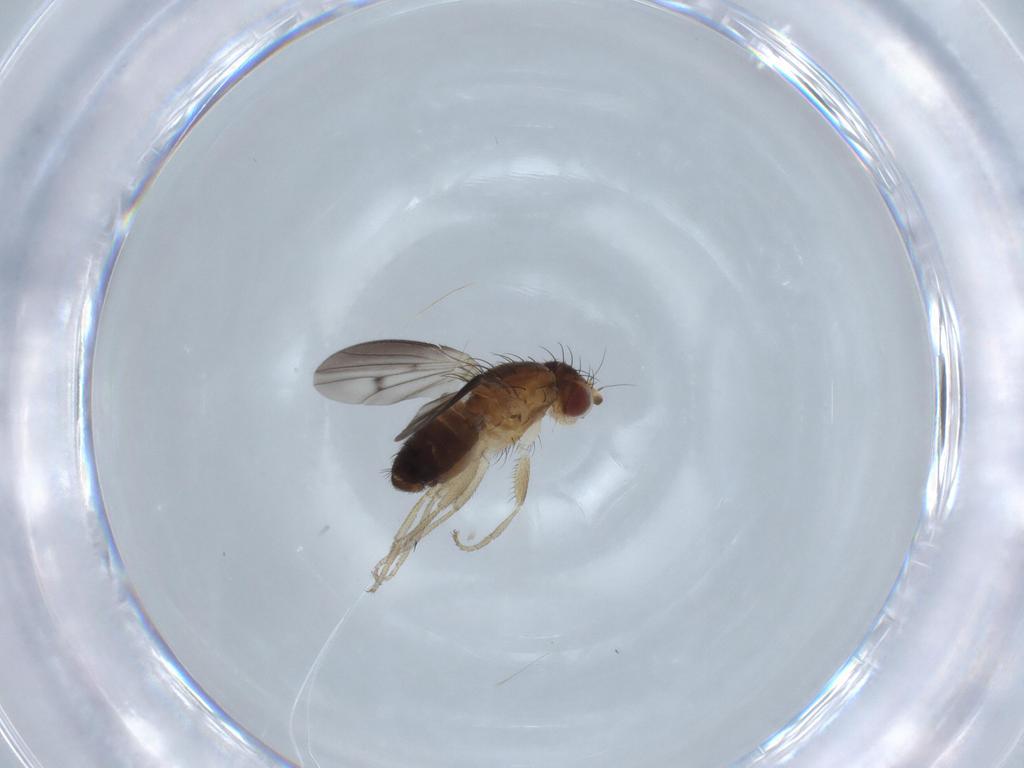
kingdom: Animalia
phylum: Arthropoda
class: Insecta
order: Diptera
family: Heleomyzidae
